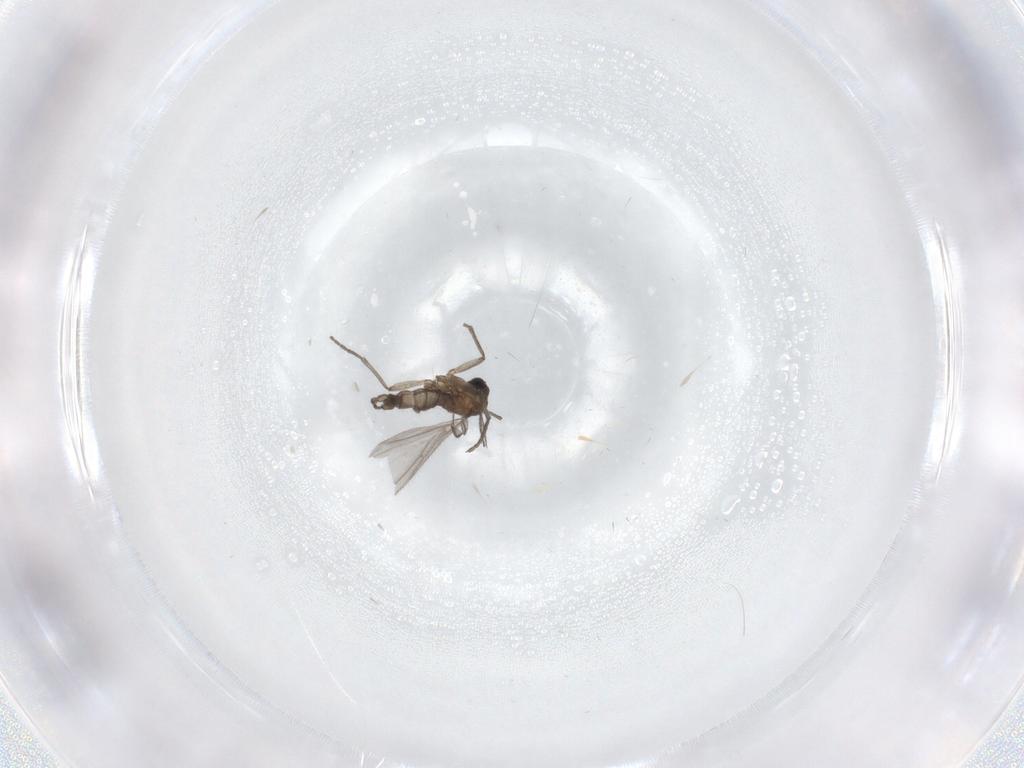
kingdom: Animalia
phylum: Arthropoda
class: Insecta
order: Diptera
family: Sciaridae
